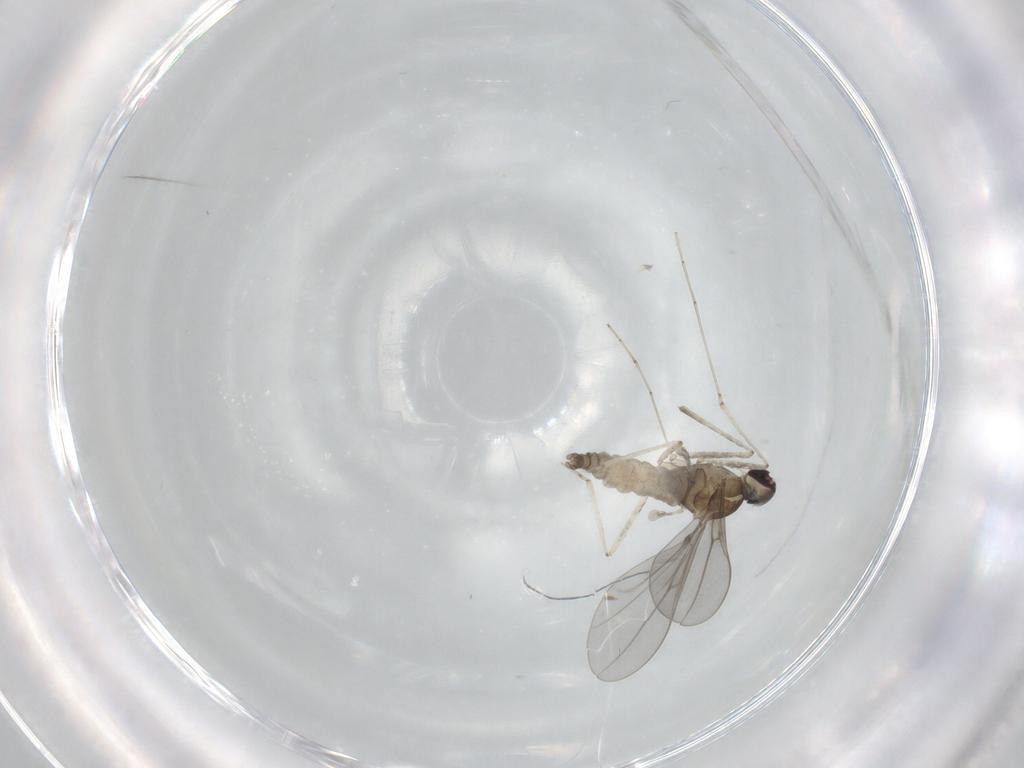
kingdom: Animalia
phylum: Arthropoda
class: Insecta
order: Diptera
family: Cecidomyiidae
